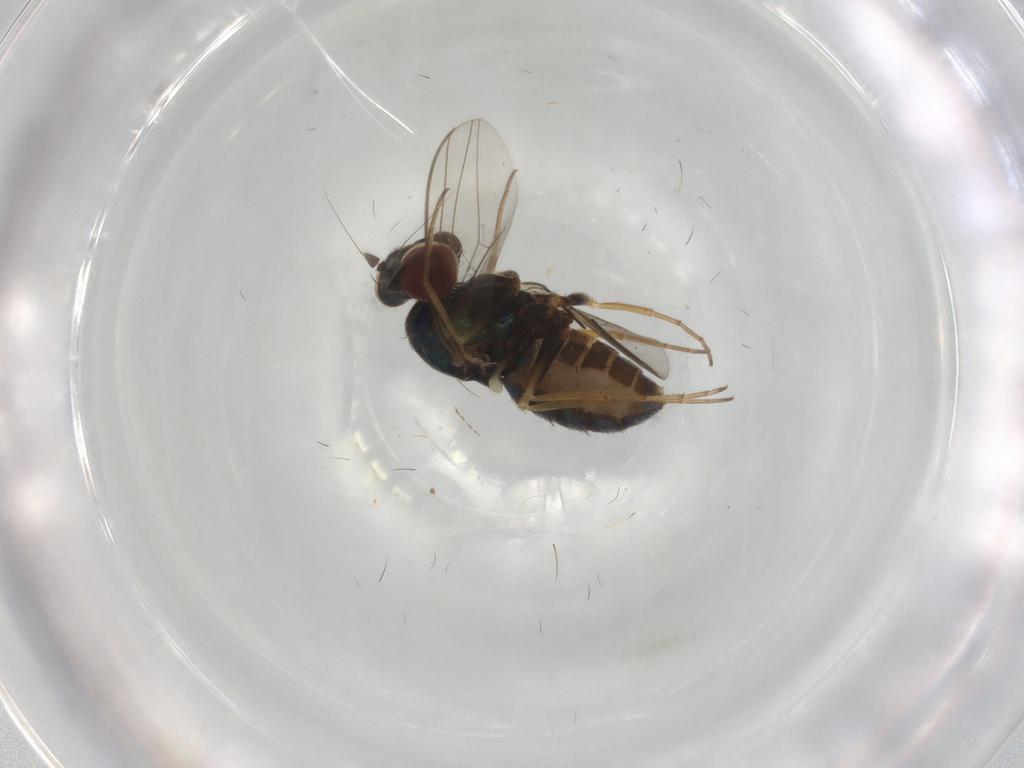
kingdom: Animalia
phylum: Arthropoda
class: Insecta
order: Diptera
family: Dolichopodidae
